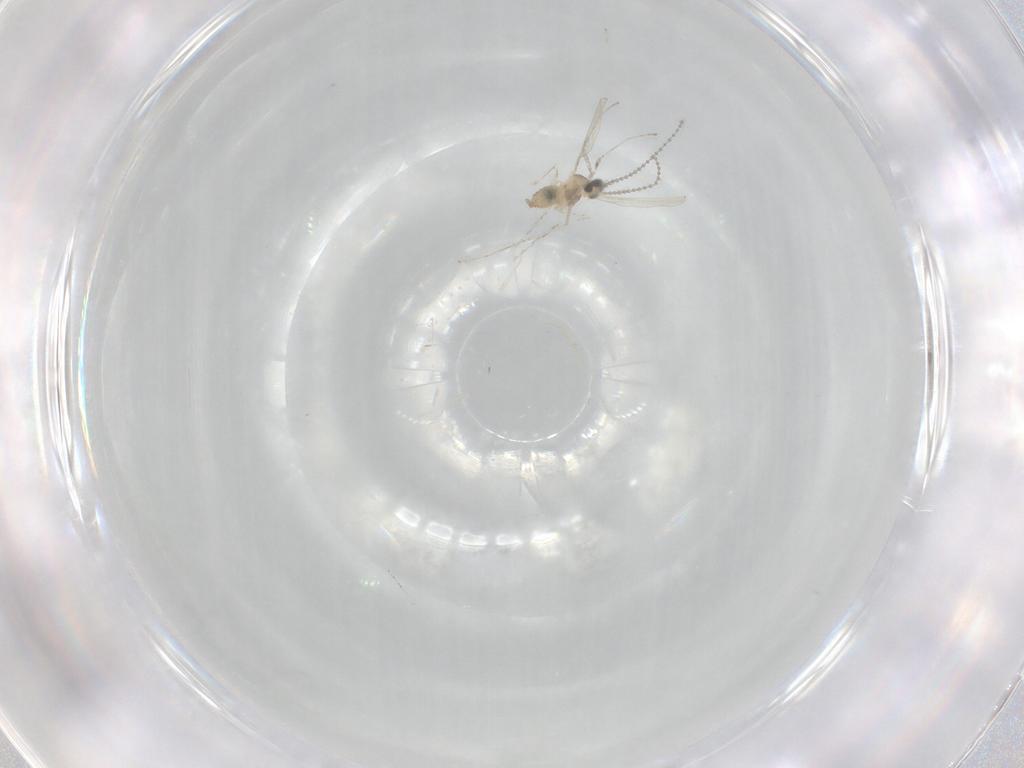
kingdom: Animalia
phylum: Arthropoda
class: Insecta
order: Diptera
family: Cecidomyiidae
